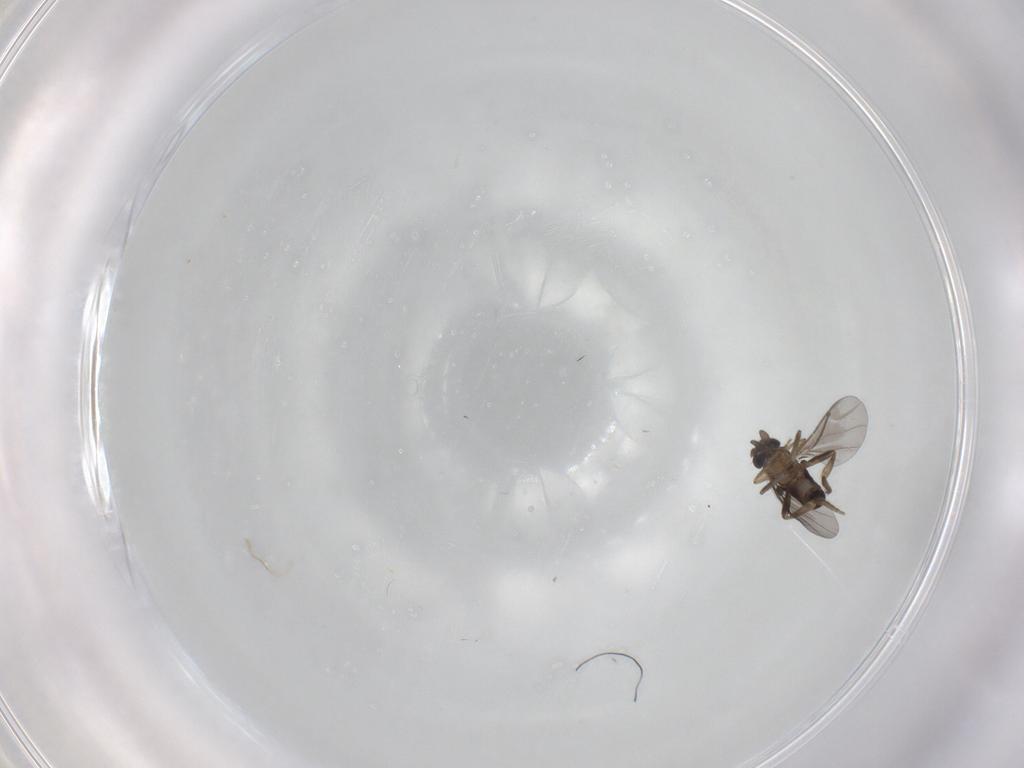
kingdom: Animalia
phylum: Arthropoda
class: Insecta
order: Diptera
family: Phoridae
